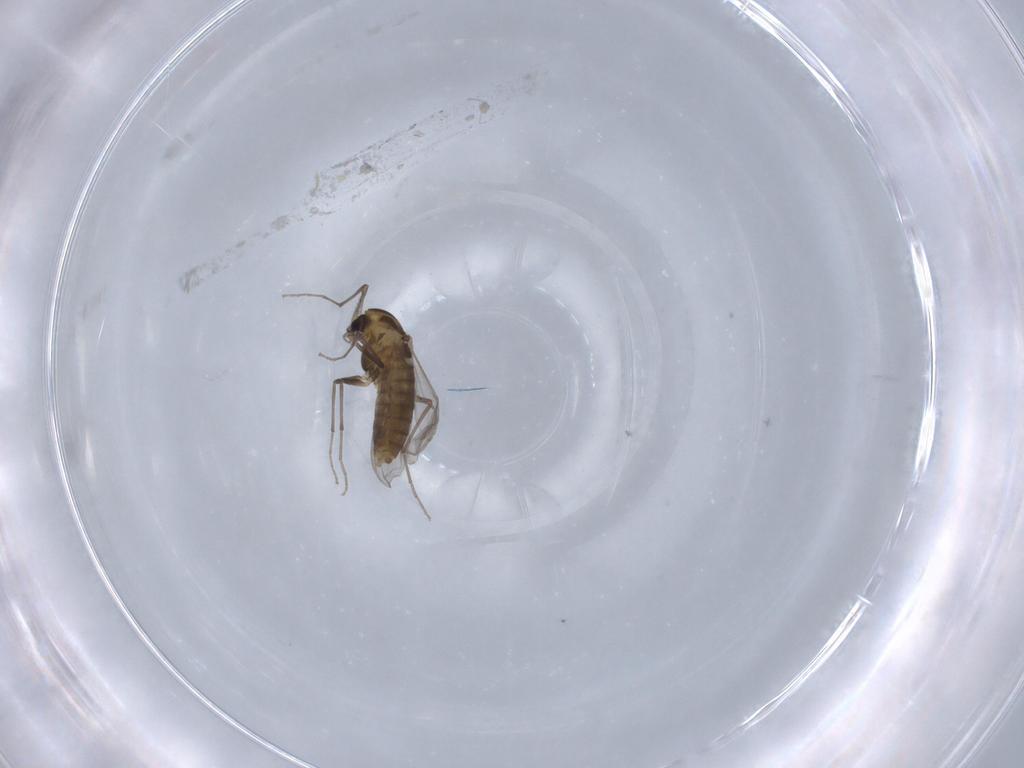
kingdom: Animalia
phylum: Arthropoda
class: Insecta
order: Diptera
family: Chironomidae
